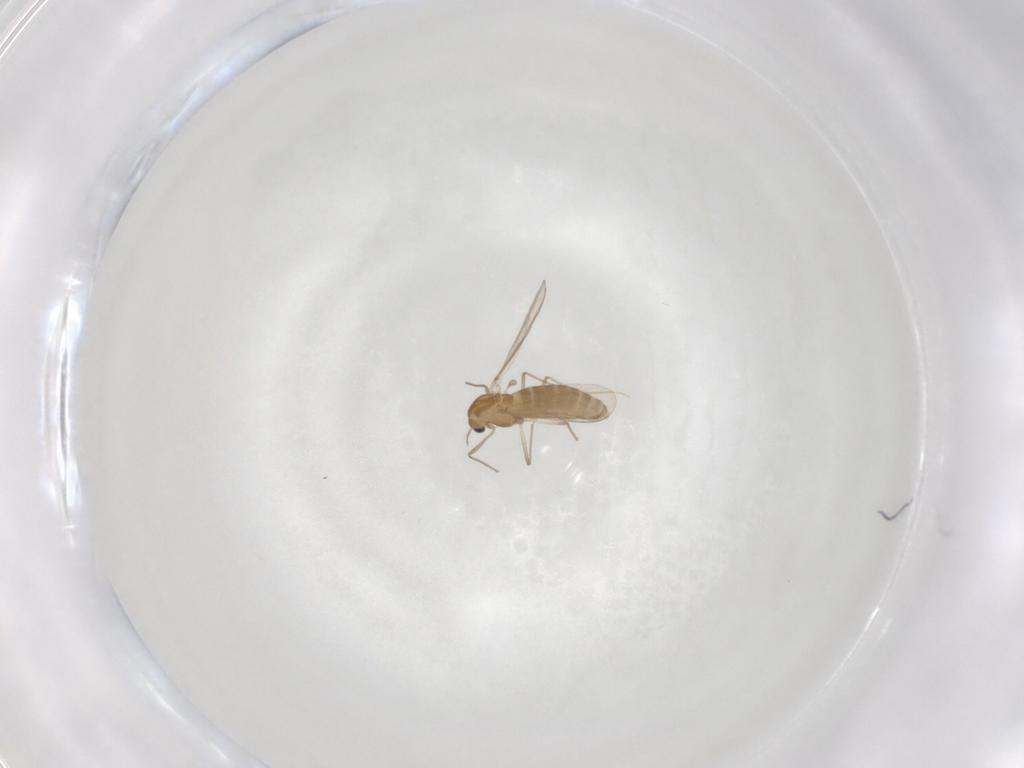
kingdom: Animalia
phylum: Arthropoda
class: Insecta
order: Diptera
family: Chironomidae
